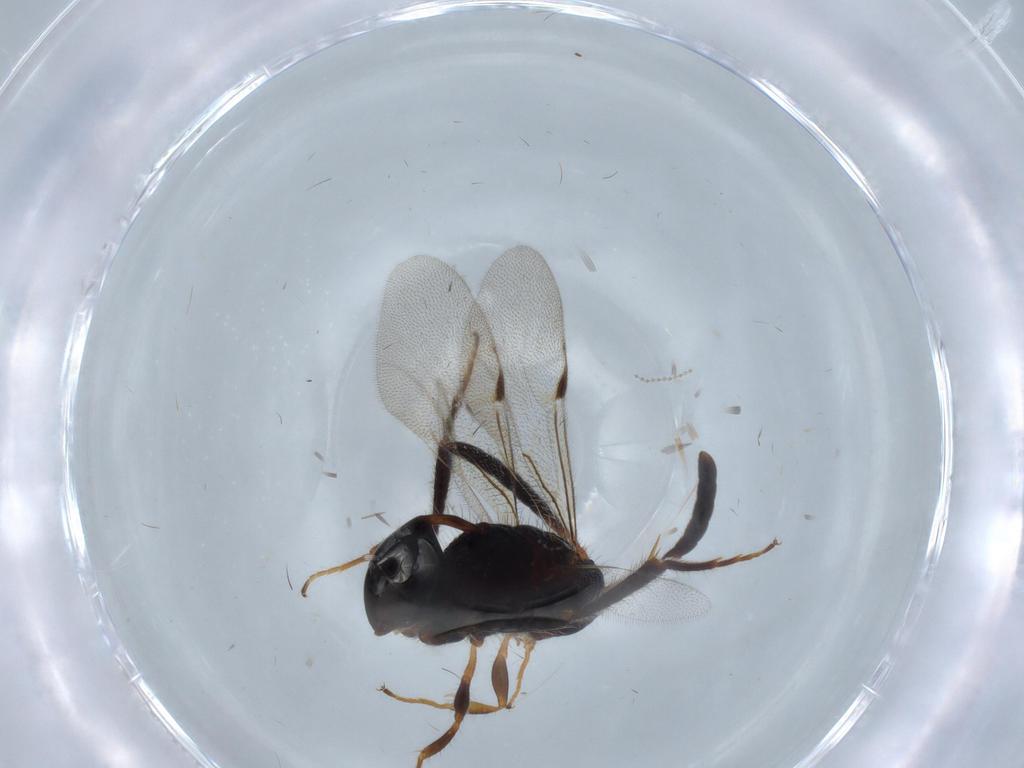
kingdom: Animalia
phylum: Arthropoda
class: Insecta
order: Hymenoptera
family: Evaniidae
